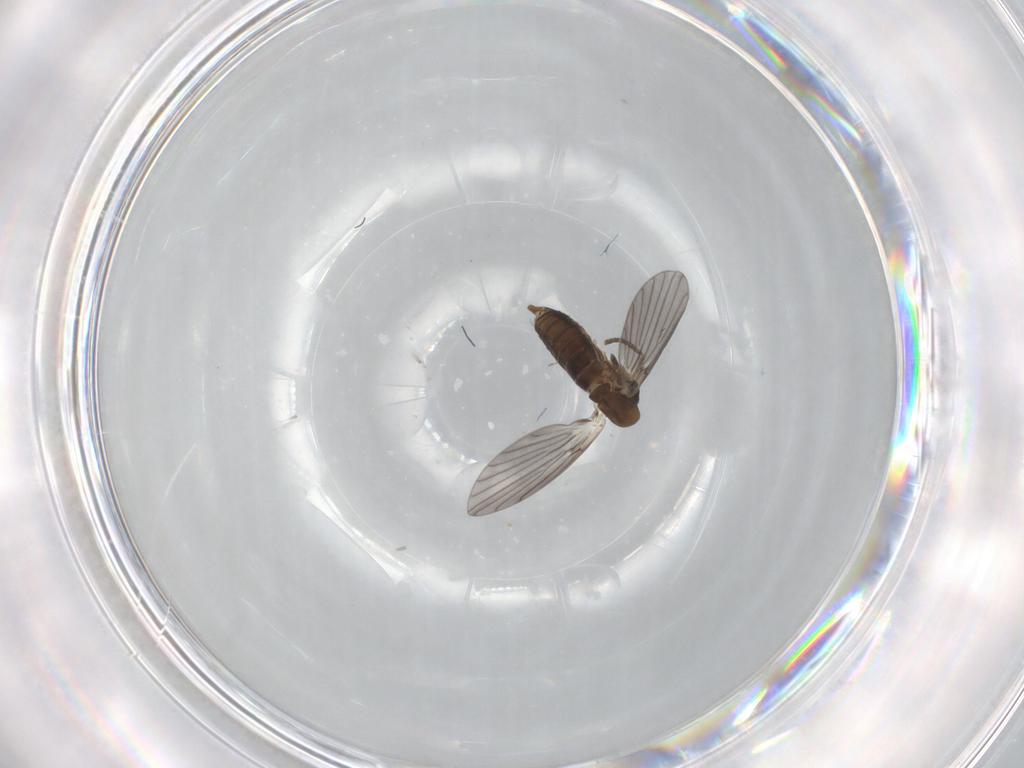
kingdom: Animalia
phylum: Arthropoda
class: Insecta
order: Diptera
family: Psychodidae
